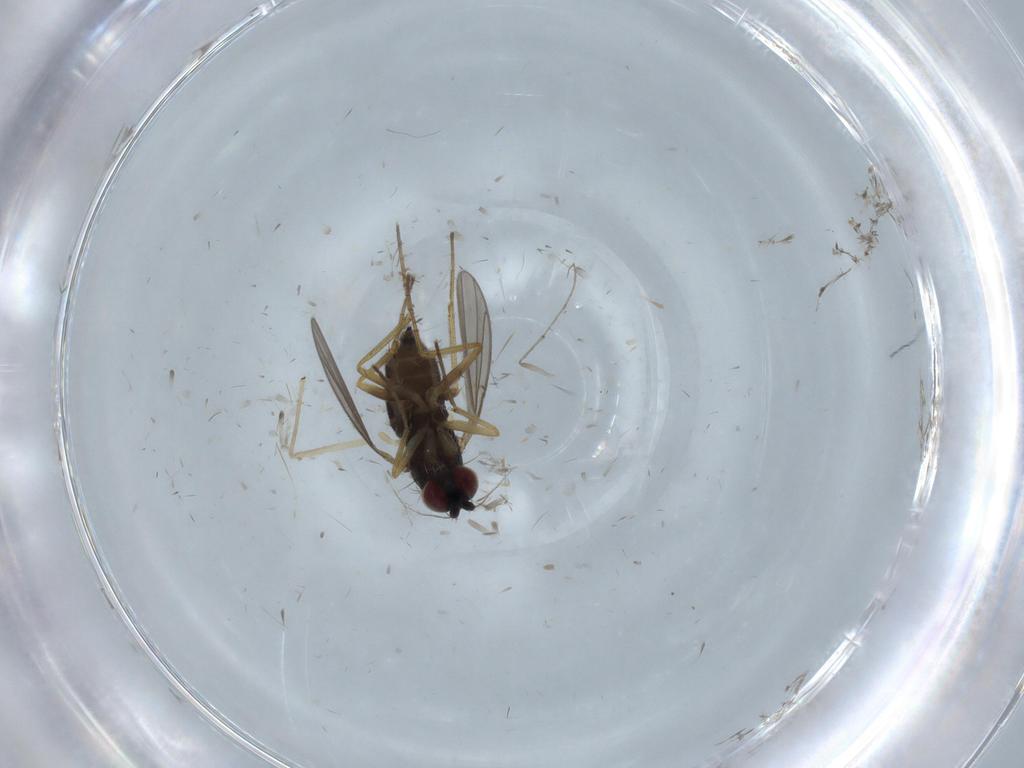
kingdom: Animalia
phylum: Arthropoda
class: Insecta
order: Diptera
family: Dolichopodidae
